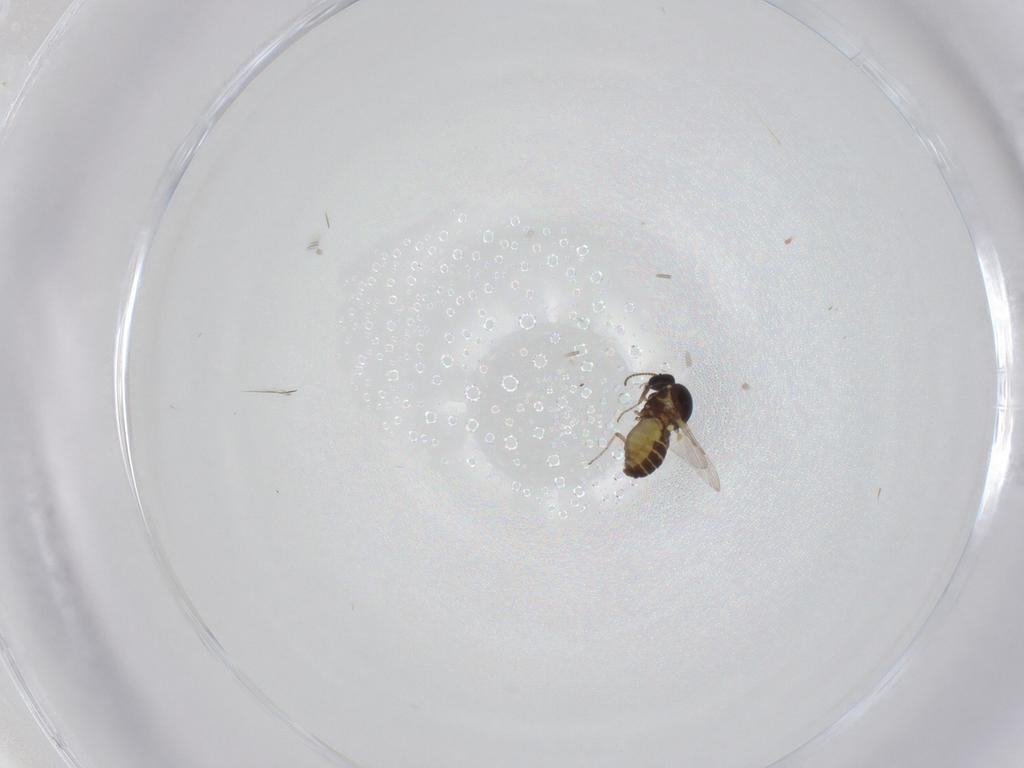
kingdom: Animalia
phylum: Arthropoda
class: Insecta
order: Diptera
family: Ceratopogonidae
